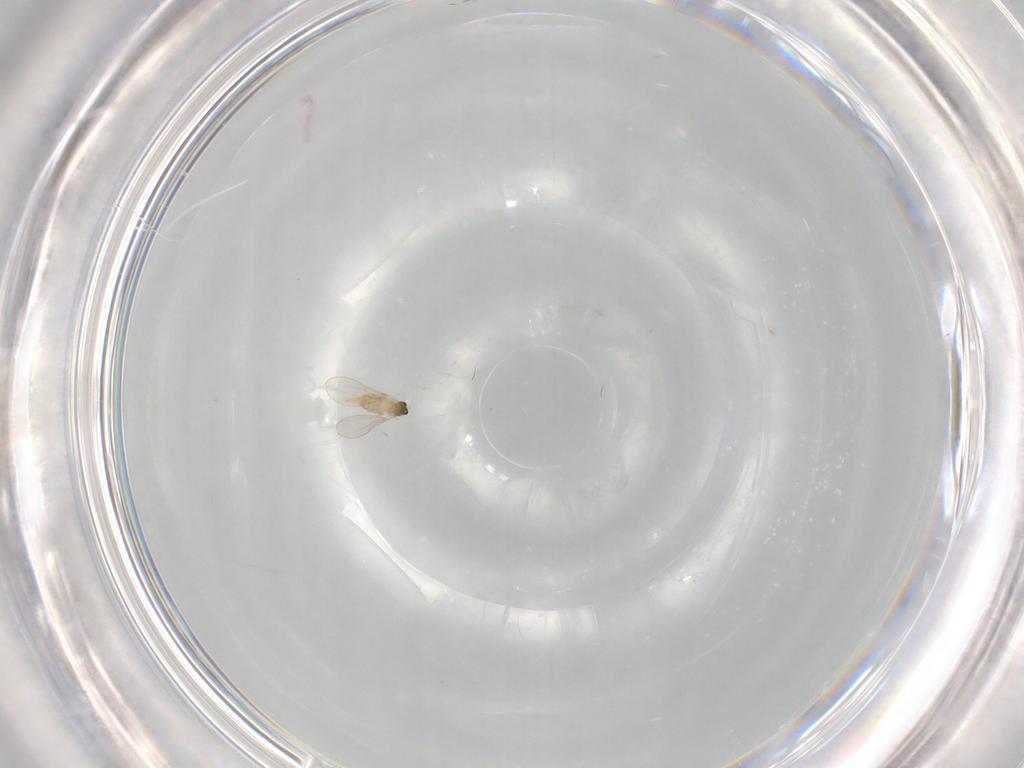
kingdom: Animalia
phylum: Arthropoda
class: Insecta
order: Diptera
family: Cecidomyiidae
